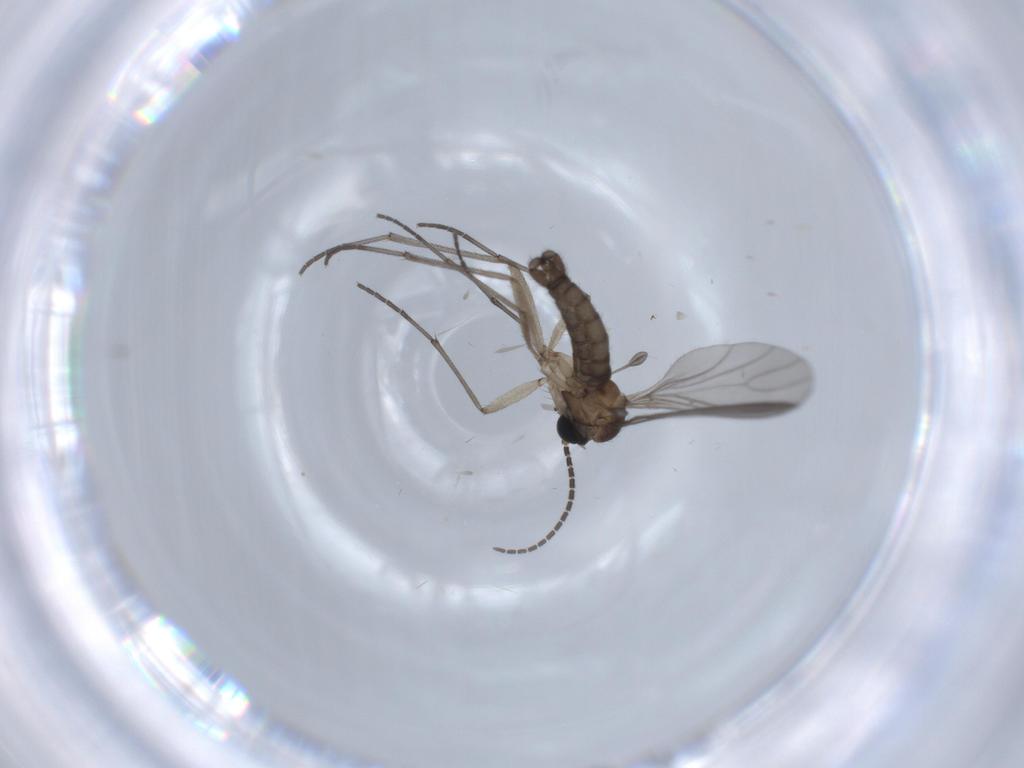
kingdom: Animalia
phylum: Arthropoda
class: Insecta
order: Diptera
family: Sciaridae
